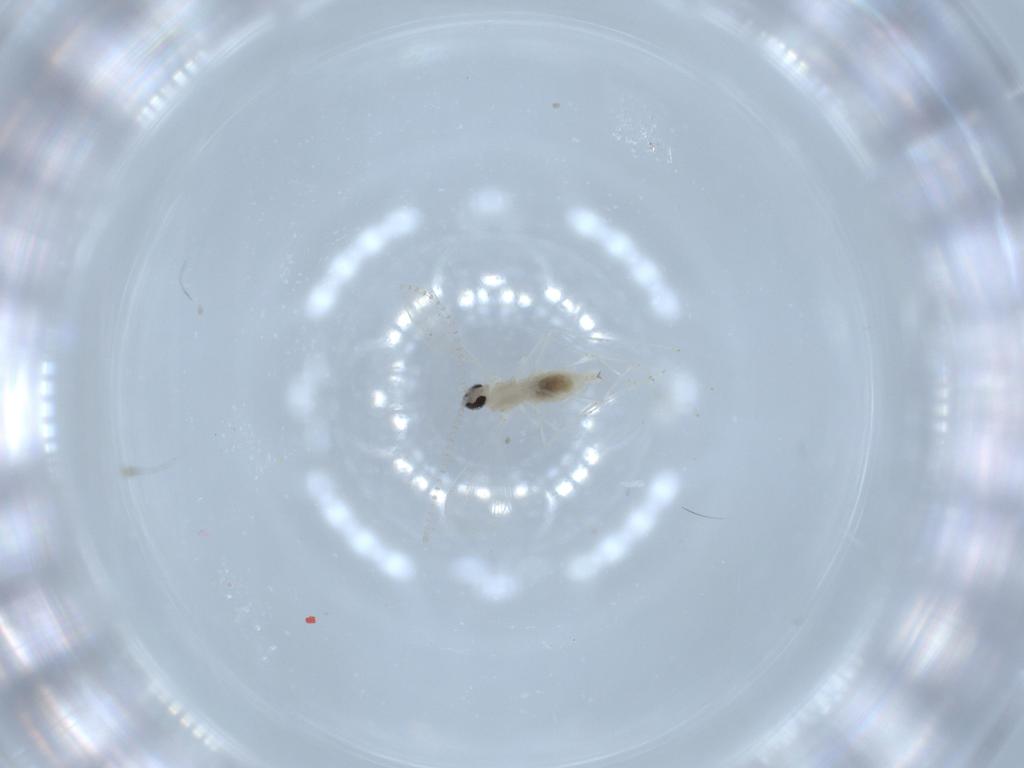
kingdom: Animalia
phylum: Arthropoda
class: Insecta
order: Diptera
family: Cecidomyiidae
